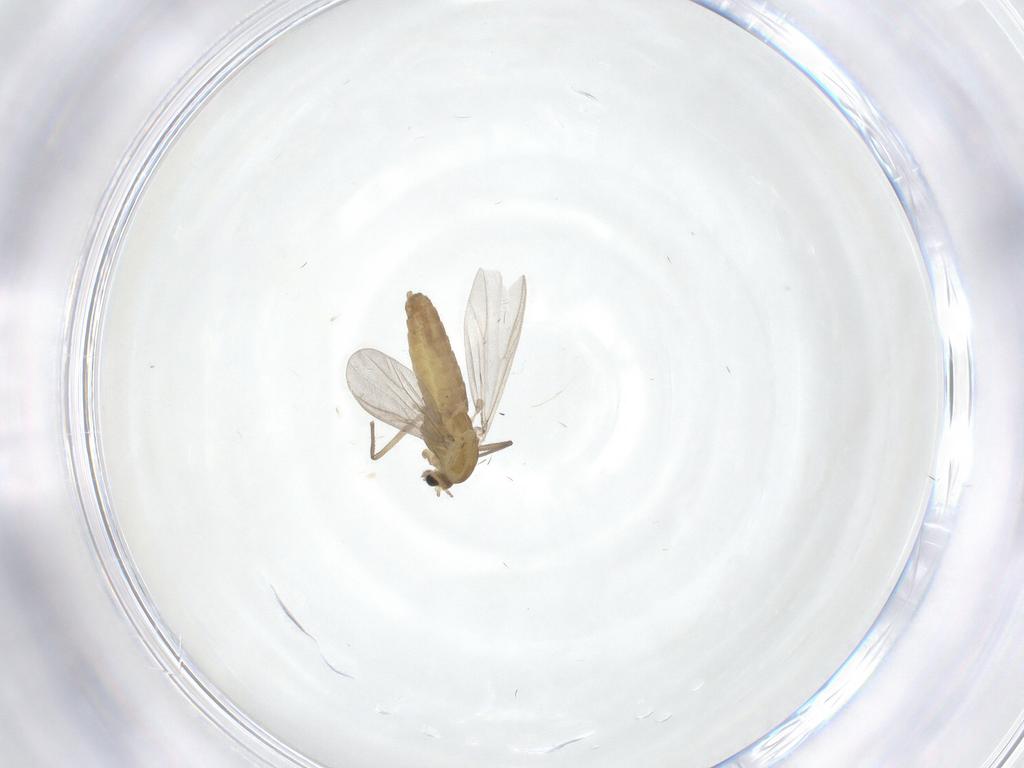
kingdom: Animalia
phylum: Arthropoda
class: Insecta
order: Diptera
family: Chironomidae
